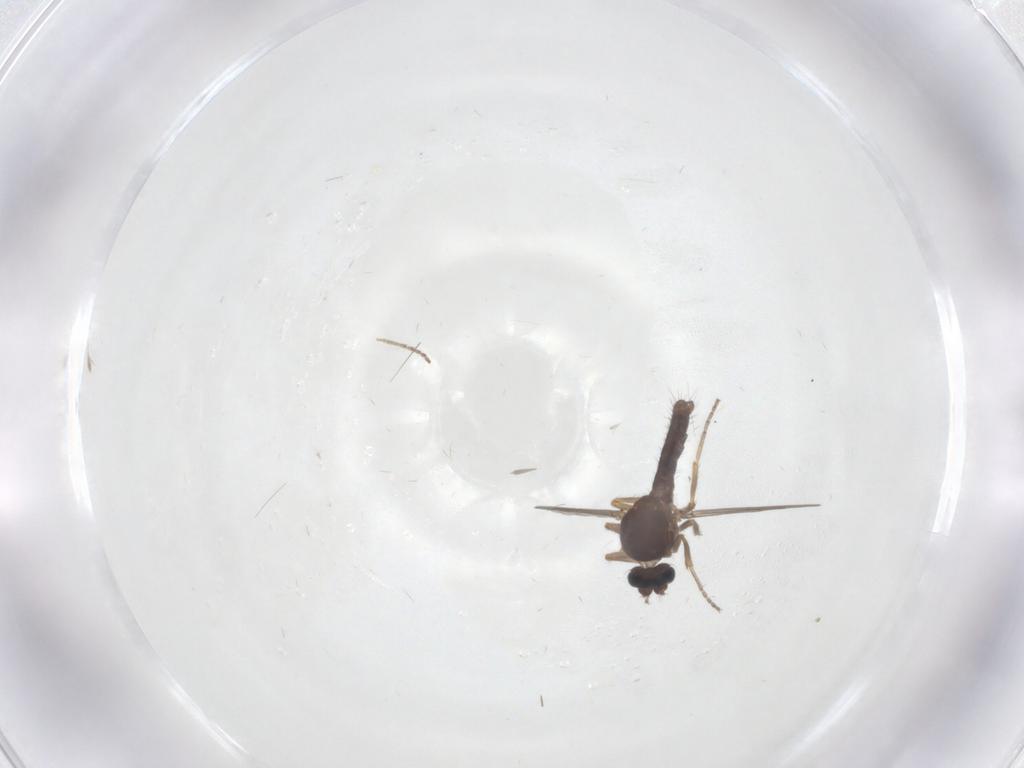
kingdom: Animalia
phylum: Arthropoda
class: Insecta
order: Diptera
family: Ceratopogonidae
